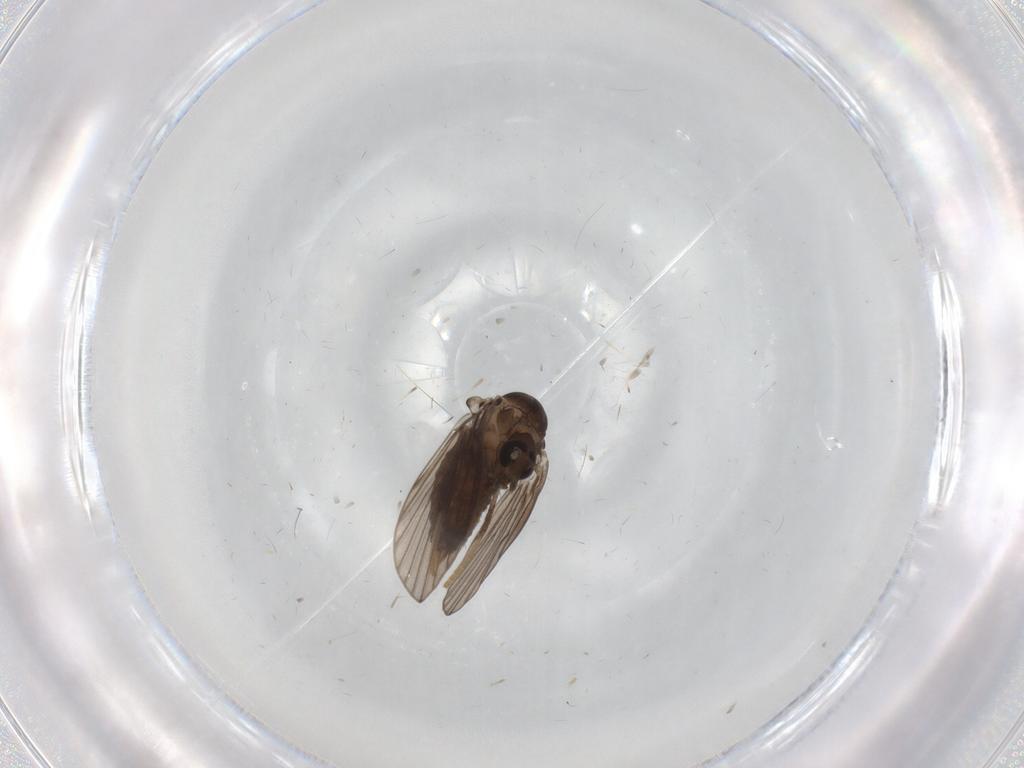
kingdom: Animalia
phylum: Arthropoda
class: Insecta
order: Diptera
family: Psychodidae
